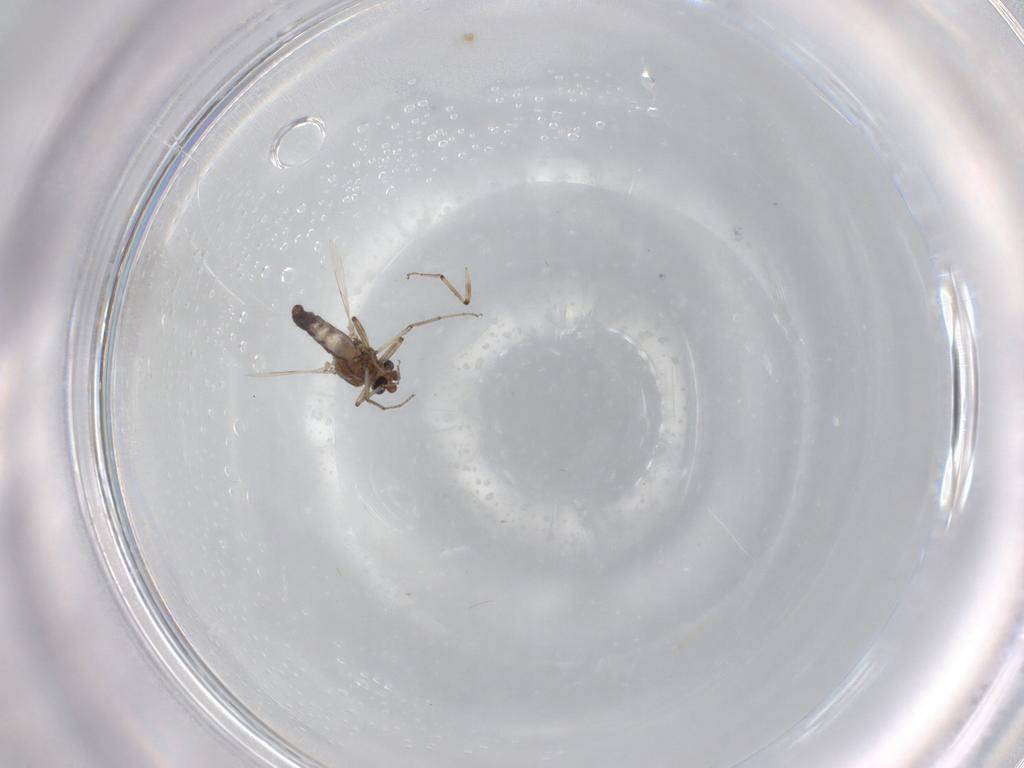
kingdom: Animalia
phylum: Arthropoda
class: Insecta
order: Diptera
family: Ceratopogonidae
